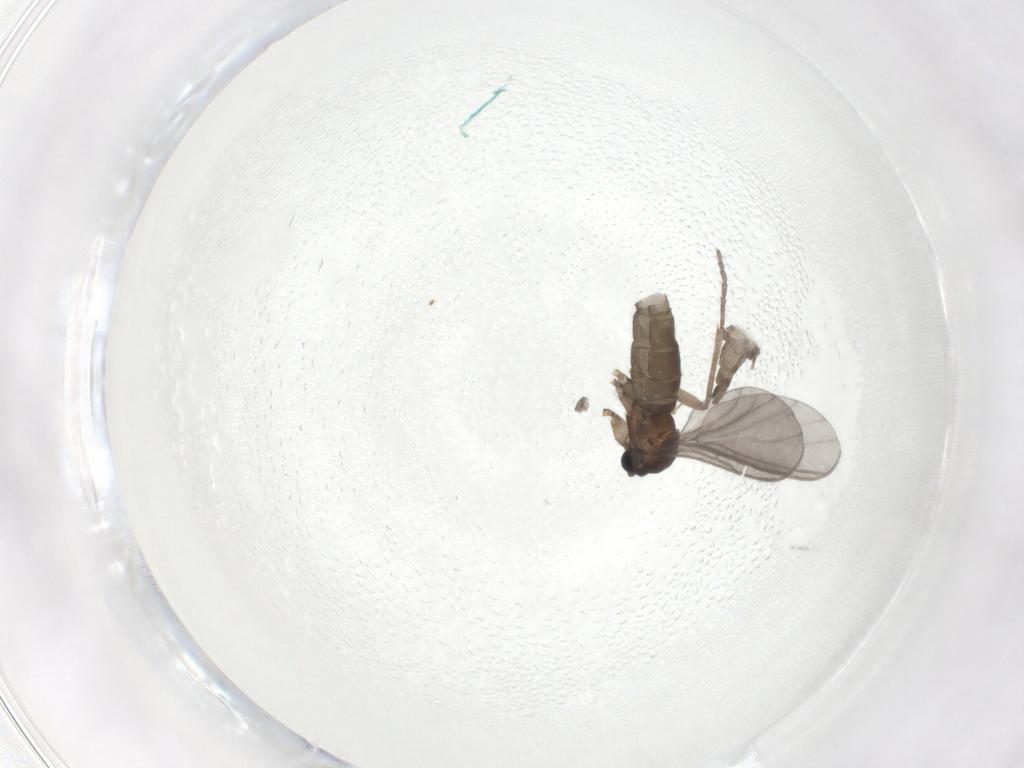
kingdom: Animalia
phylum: Arthropoda
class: Insecta
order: Diptera
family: Sciaridae
